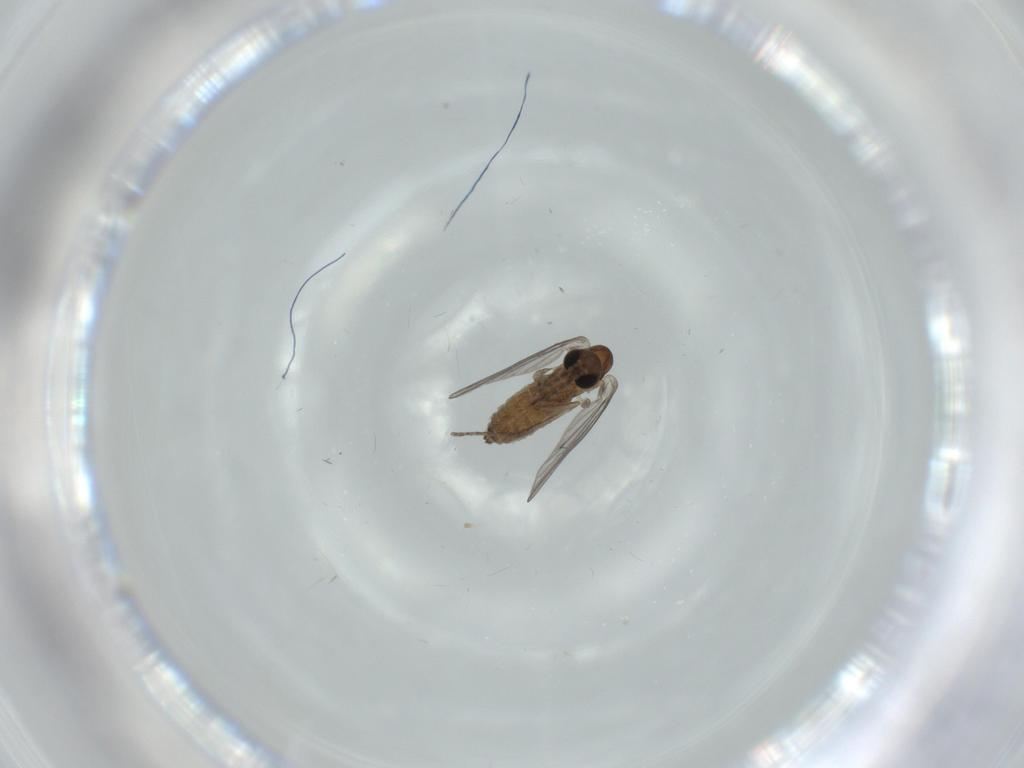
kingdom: Animalia
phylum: Arthropoda
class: Insecta
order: Diptera
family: Psychodidae
